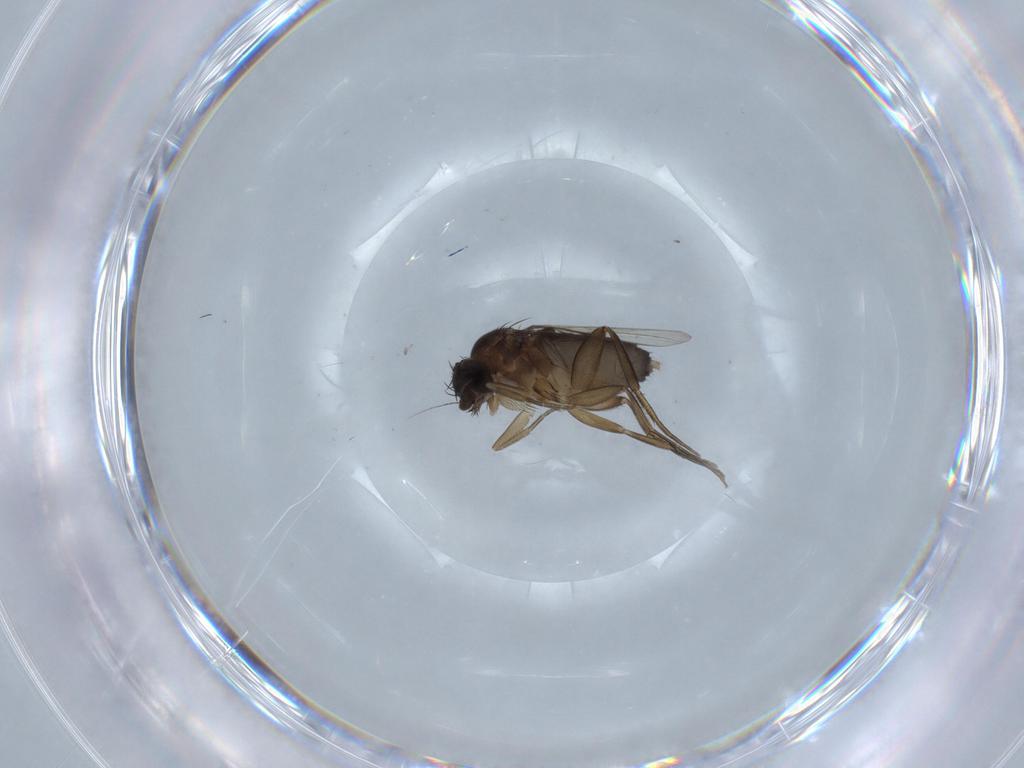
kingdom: Animalia
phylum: Arthropoda
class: Insecta
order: Diptera
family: Phoridae
